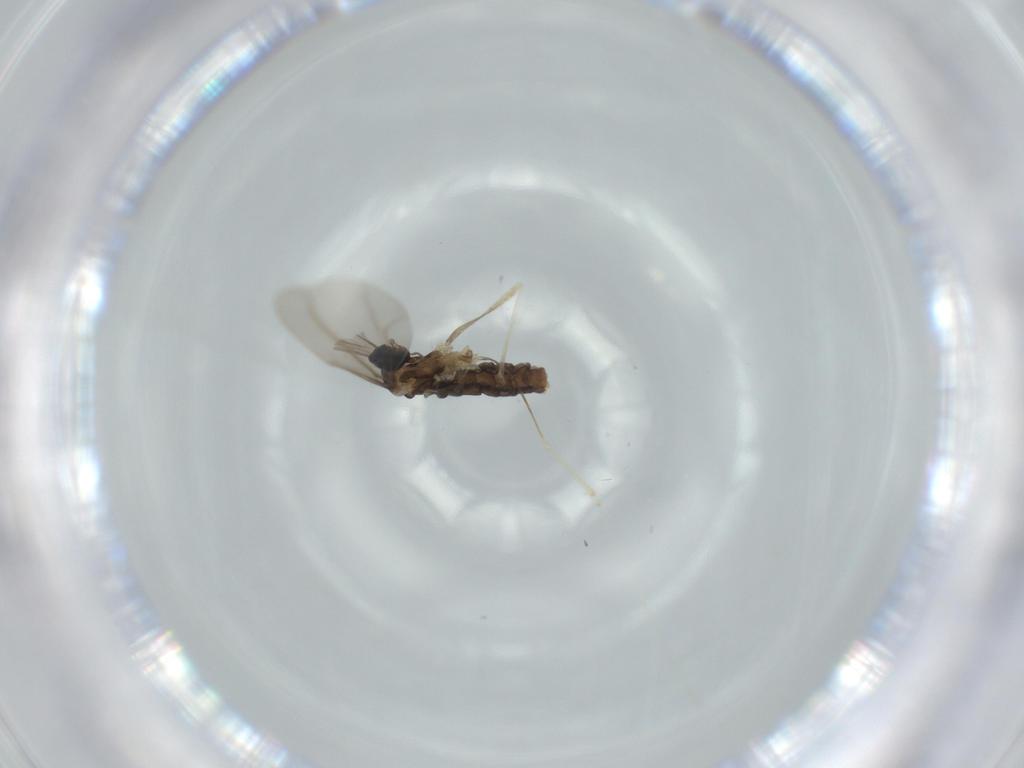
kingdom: Animalia
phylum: Arthropoda
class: Insecta
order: Diptera
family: Cecidomyiidae
